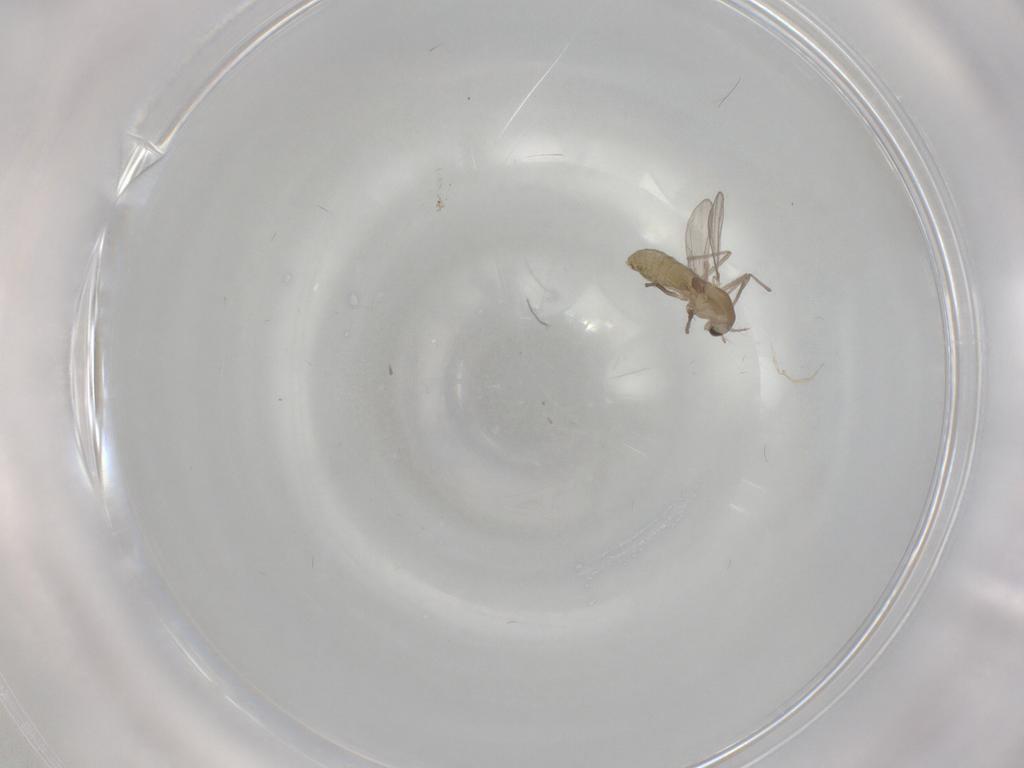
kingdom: Animalia
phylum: Arthropoda
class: Insecta
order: Diptera
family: Chironomidae
